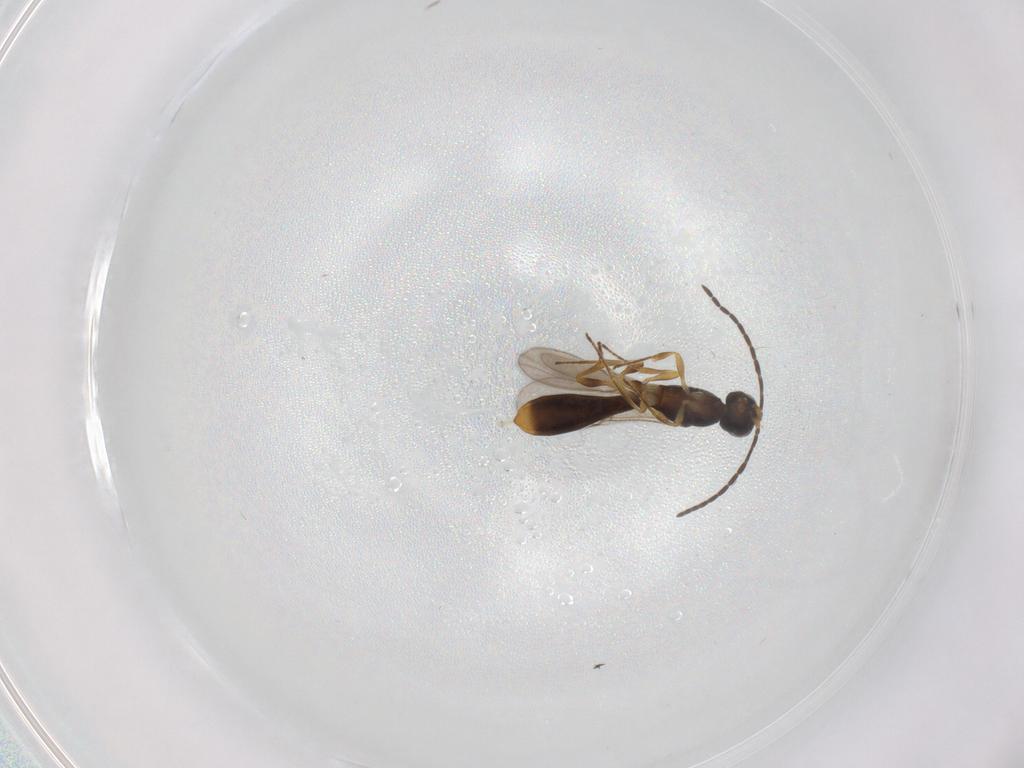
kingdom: Animalia
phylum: Arthropoda
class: Insecta
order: Hymenoptera
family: Scelionidae
